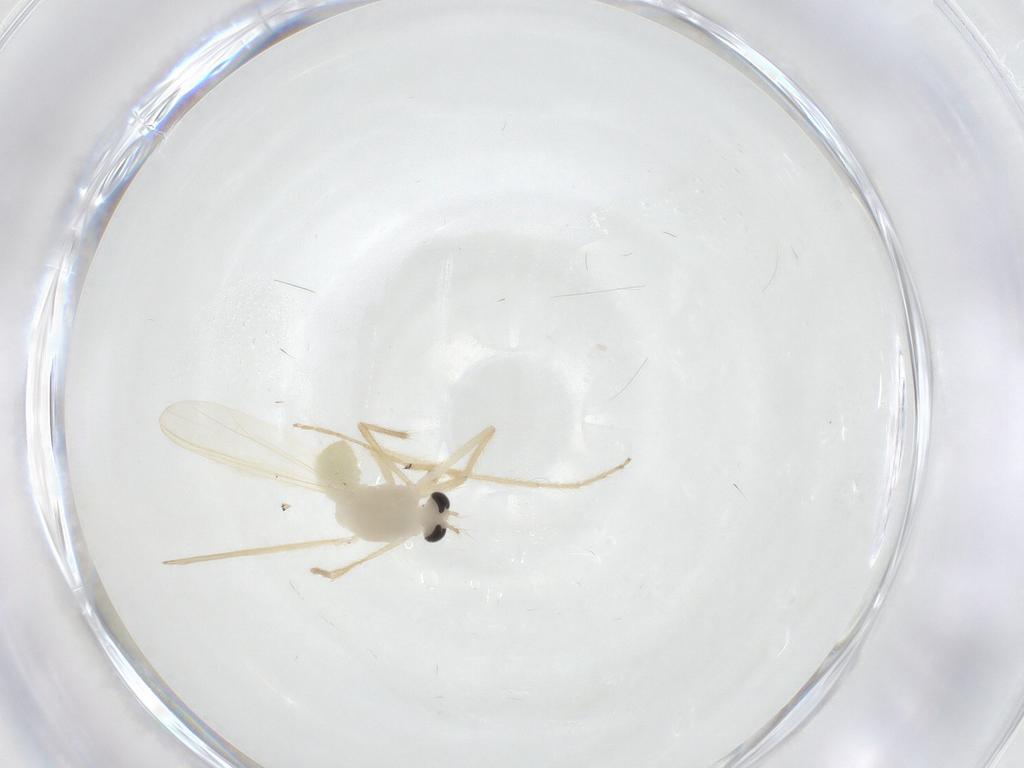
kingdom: Animalia
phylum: Arthropoda
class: Insecta
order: Diptera
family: Chironomidae
